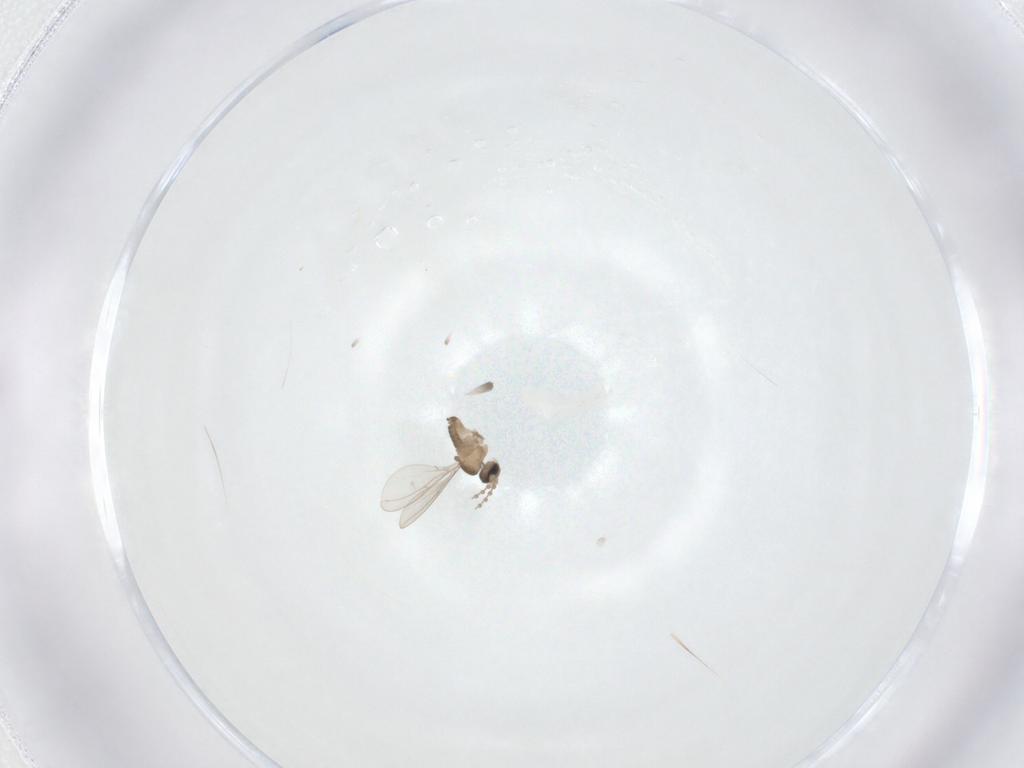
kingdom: Animalia
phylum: Arthropoda
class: Insecta
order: Diptera
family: Cecidomyiidae
